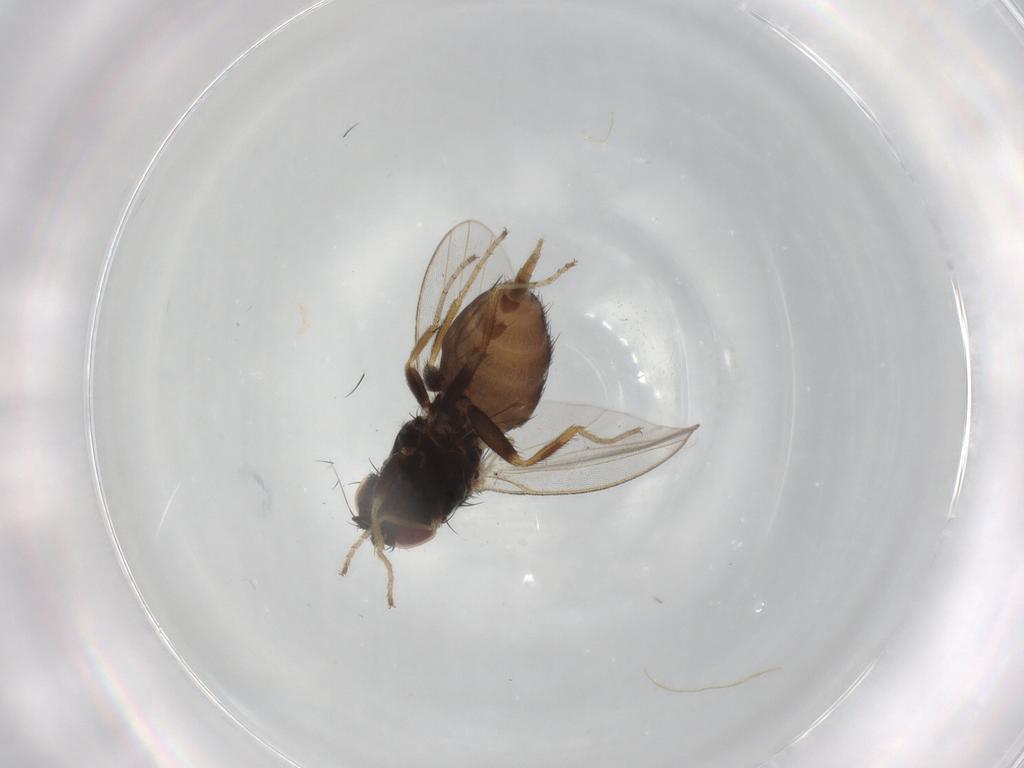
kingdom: Animalia
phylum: Arthropoda
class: Insecta
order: Diptera
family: Milichiidae
